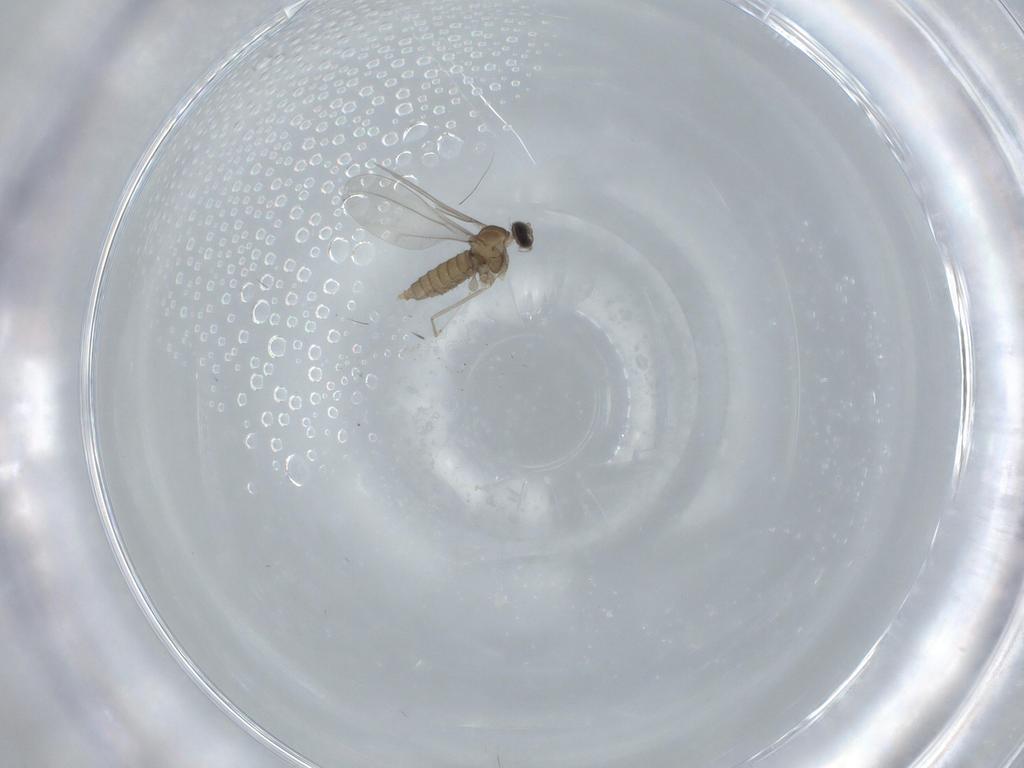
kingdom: Animalia
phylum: Arthropoda
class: Insecta
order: Diptera
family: Cecidomyiidae
